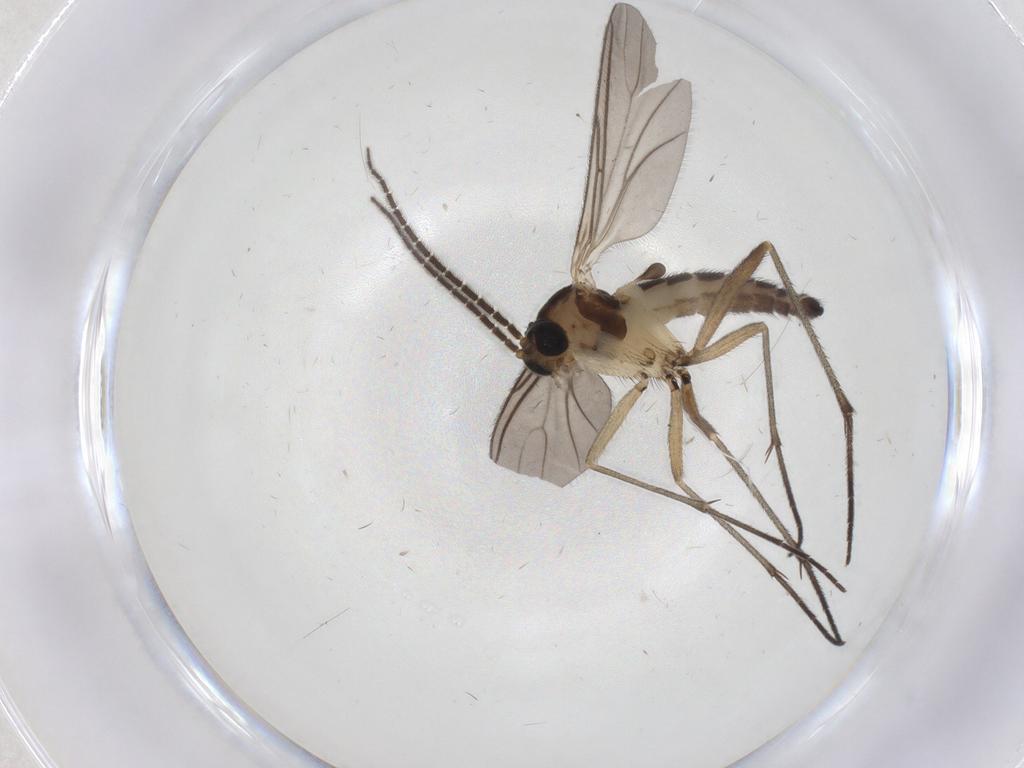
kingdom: Animalia
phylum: Arthropoda
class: Insecta
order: Diptera
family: Sciaridae
